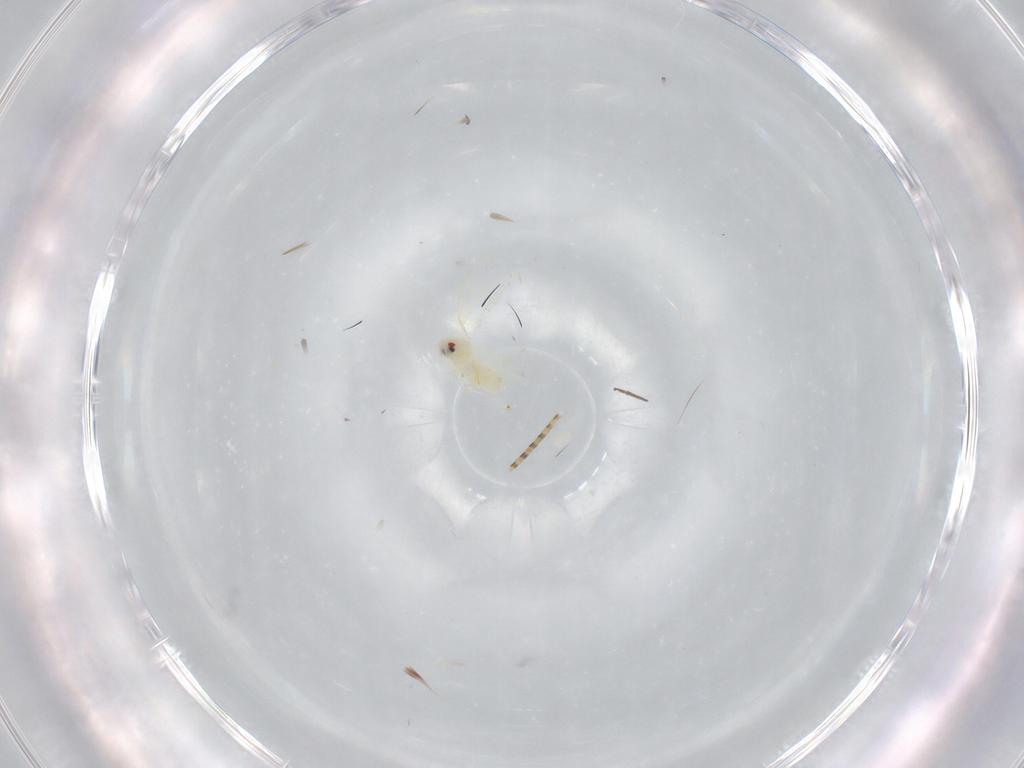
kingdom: Animalia
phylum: Arthropoda
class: Insecta
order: Hemiptera
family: Aleyrodidae
